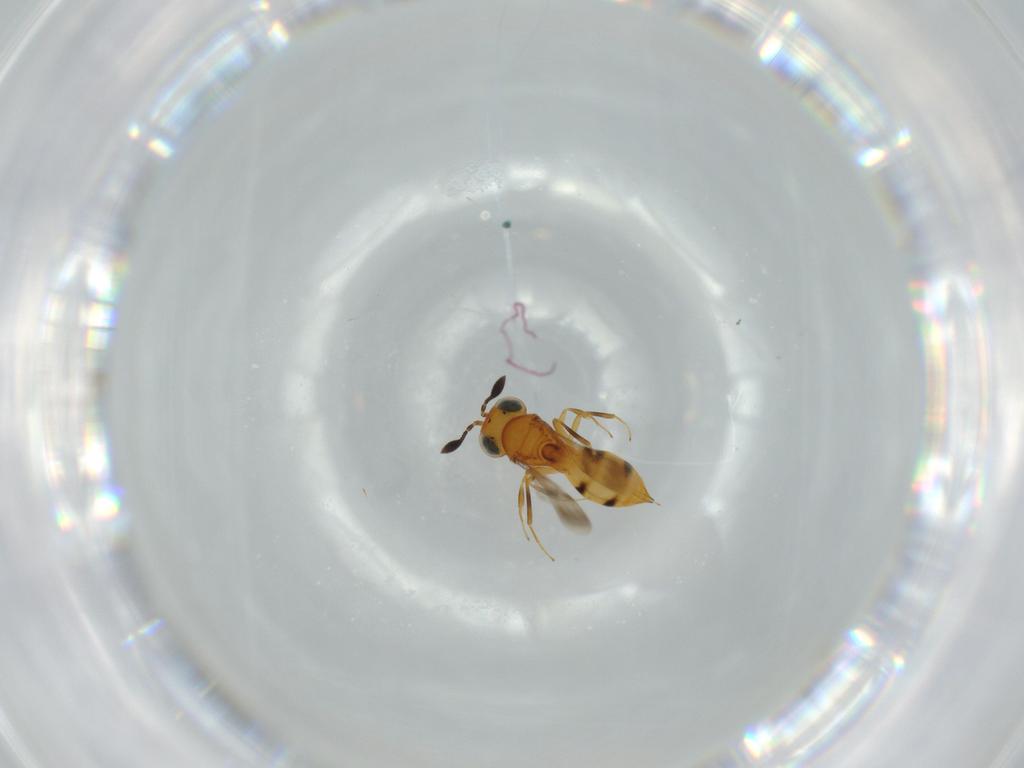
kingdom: Animalia
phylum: Arthropoda
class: Insecta
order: Hymenoptera
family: Scelionidae
